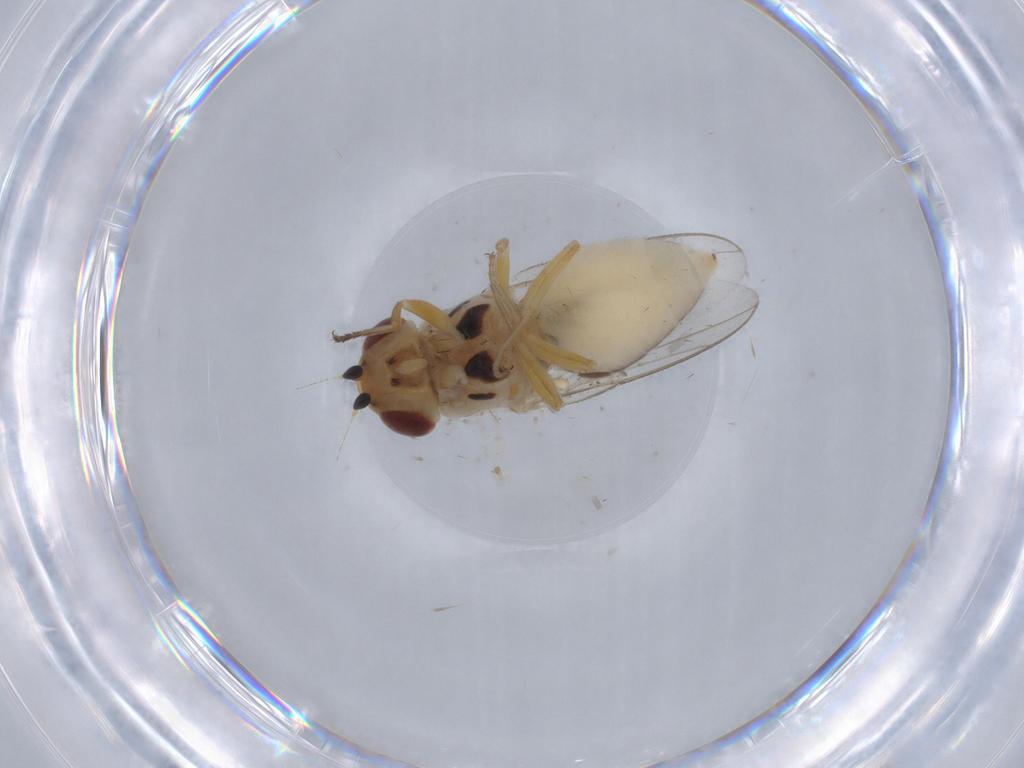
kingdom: Animalia
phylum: Arthropoda
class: Insecta
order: Diptera
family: Chloropidae
